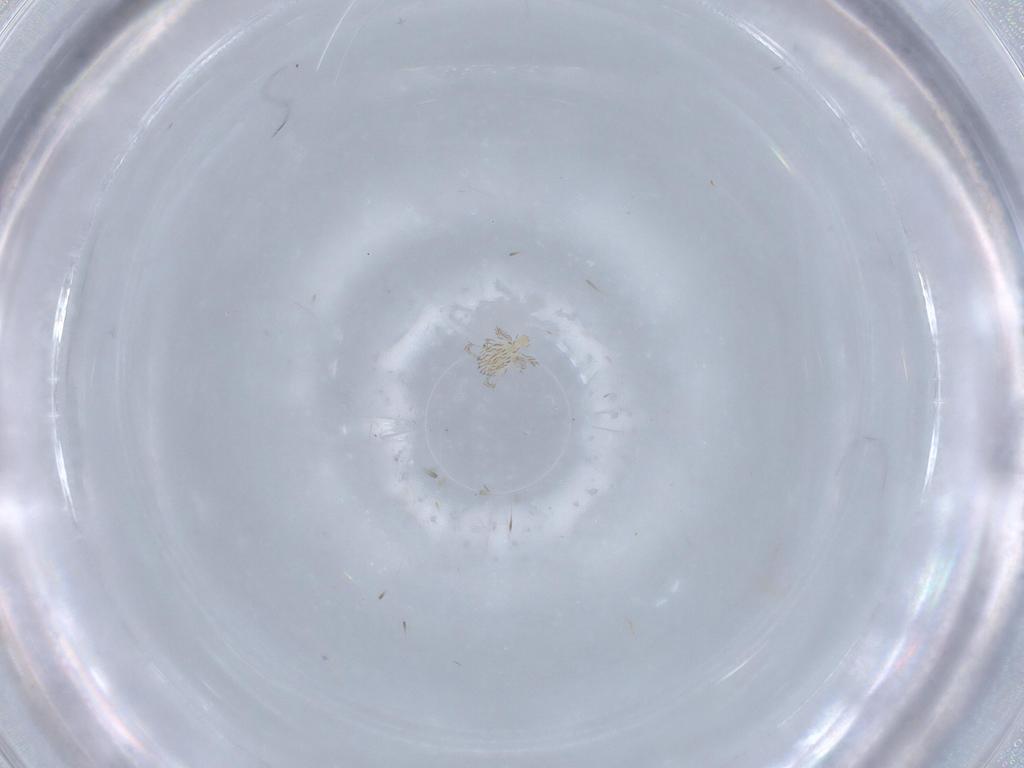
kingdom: Animalia
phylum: Arthropoda
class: Arachnida
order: Trombidiformes
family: Erythraeidae
